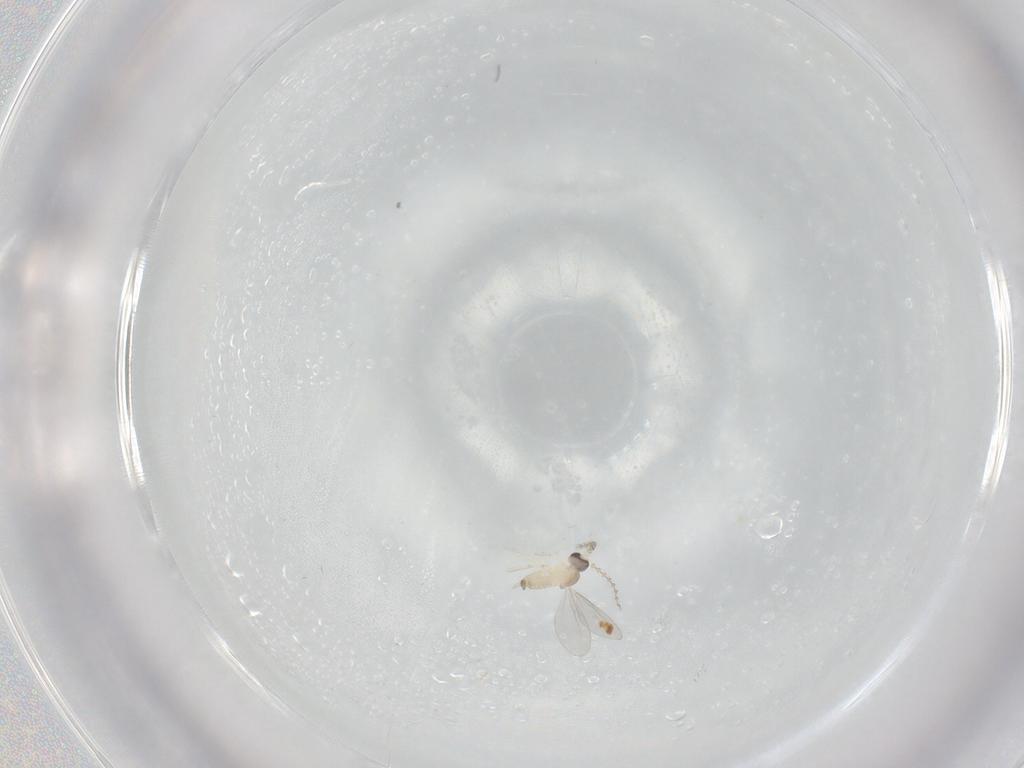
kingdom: Animalia
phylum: Arthropoda
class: Insecta
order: Diptera
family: Cecidomyiidae
